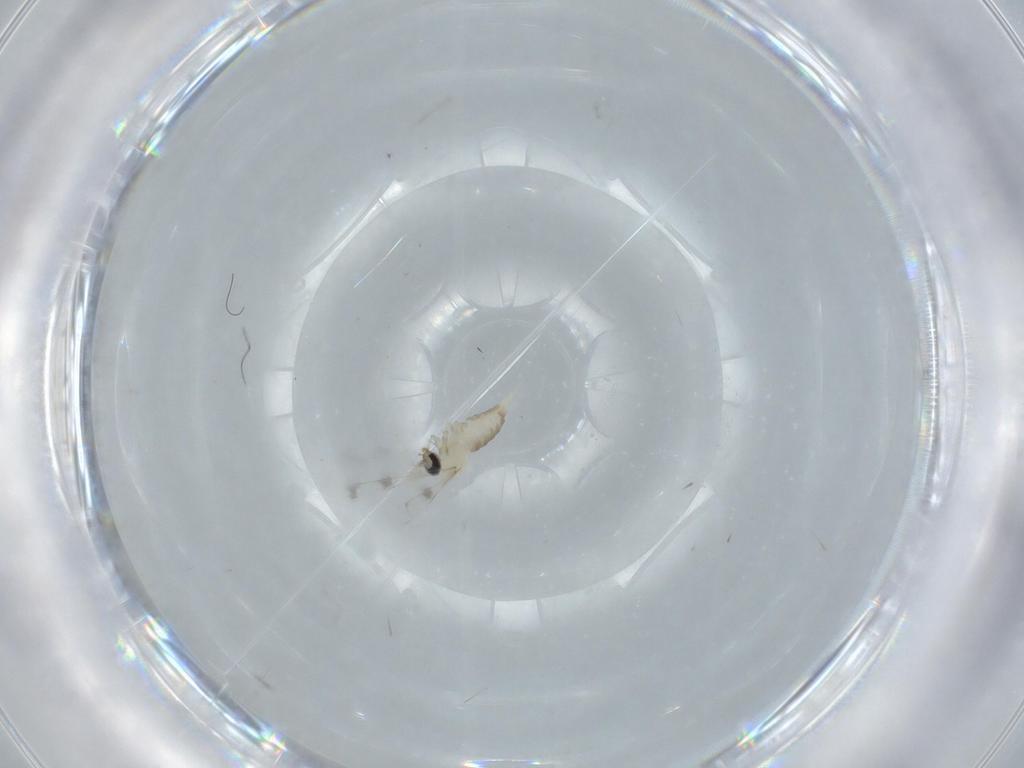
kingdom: Animalia
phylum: Arthropoda
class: Insecta
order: Diptera
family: Cecidomyiidae
